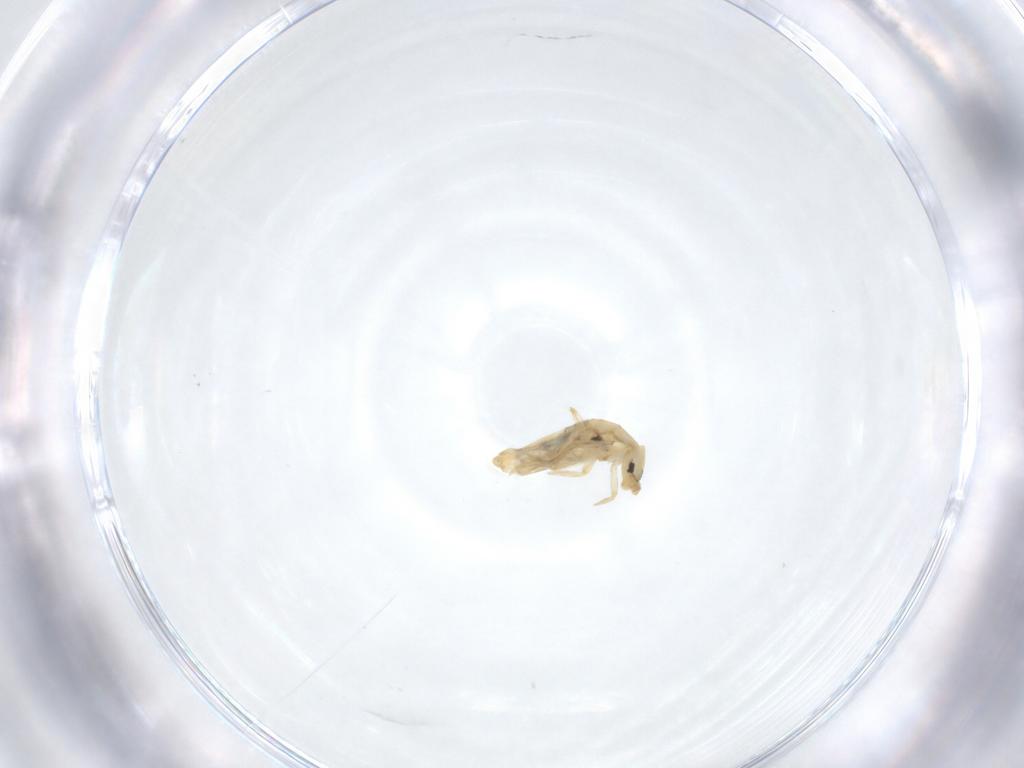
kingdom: Animalia
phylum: Arthropoda
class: Collembola
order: Entomobryomorpha
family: Entomobryidae
